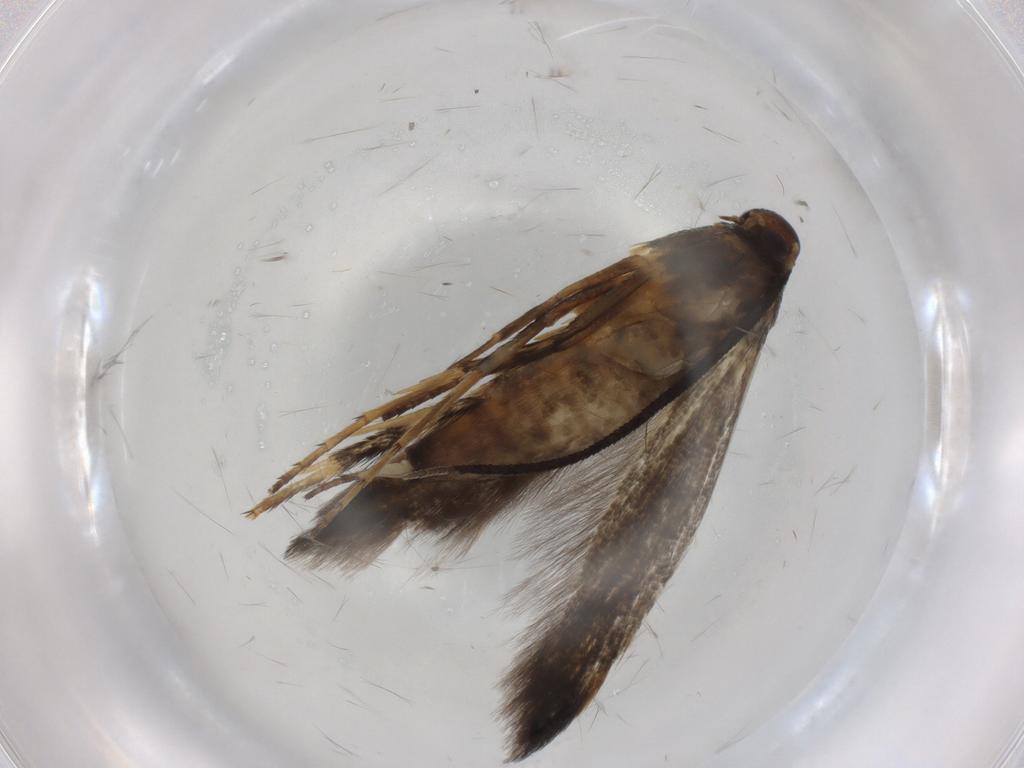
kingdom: Animalia
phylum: Arthropoda
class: Insecta
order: Lepidoptera
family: Heliodinidae
